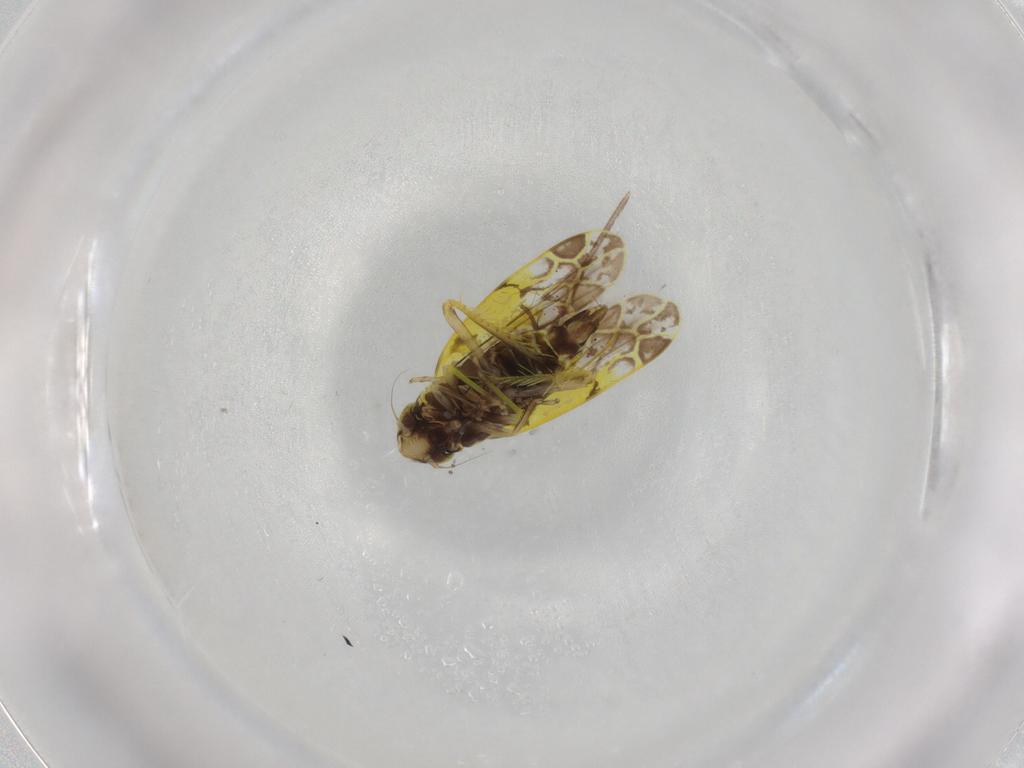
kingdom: Animalia
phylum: Arthropoda
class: Insecta
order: Hemiptera
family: Cicadellidae
